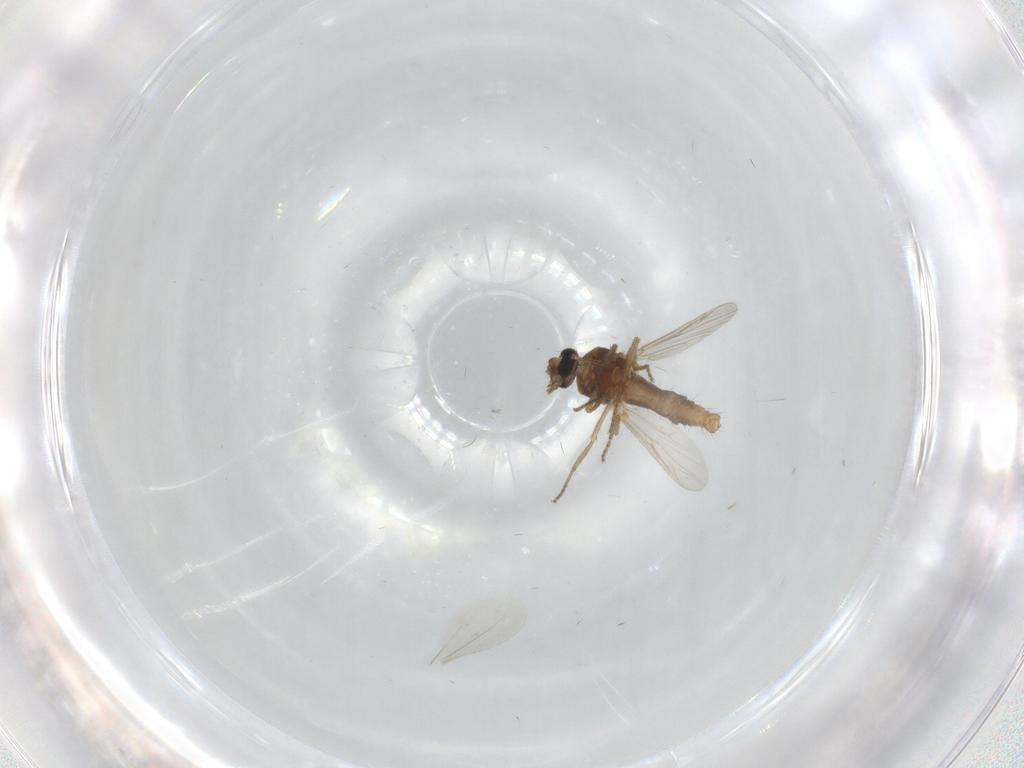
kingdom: Animalia
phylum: Arthropoda
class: Insecta
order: Diptera
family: Cecidomyiidae
